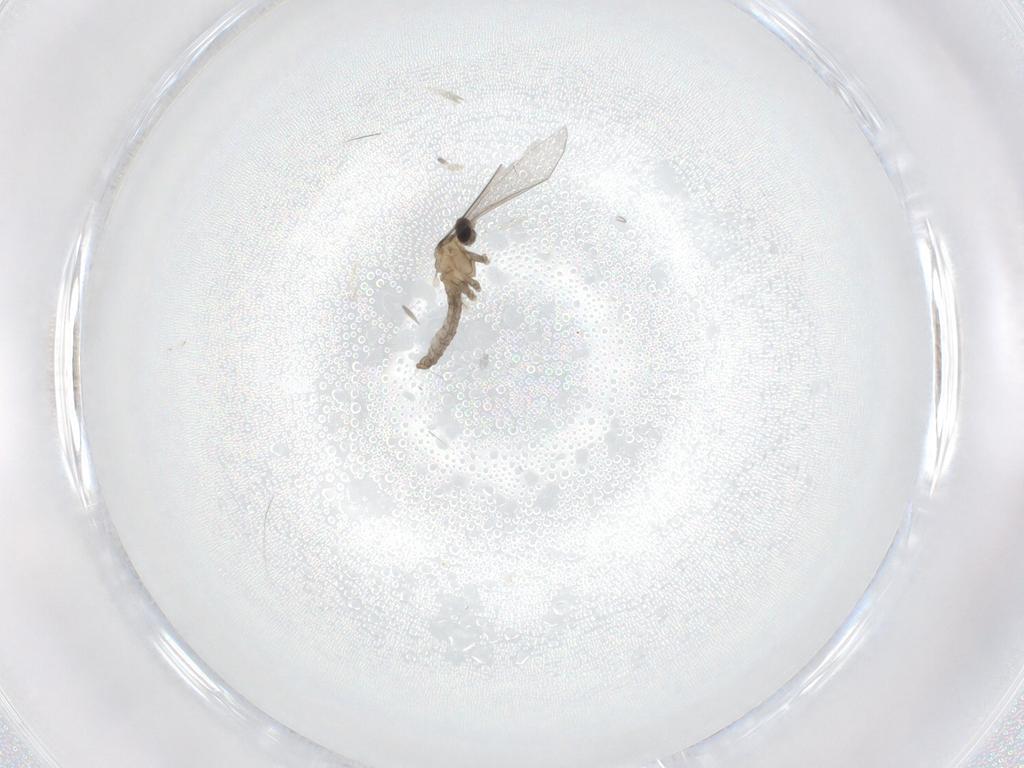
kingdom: Animalia
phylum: Arthropoda
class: Insecta
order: Diptera
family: Cecidomyiidae
